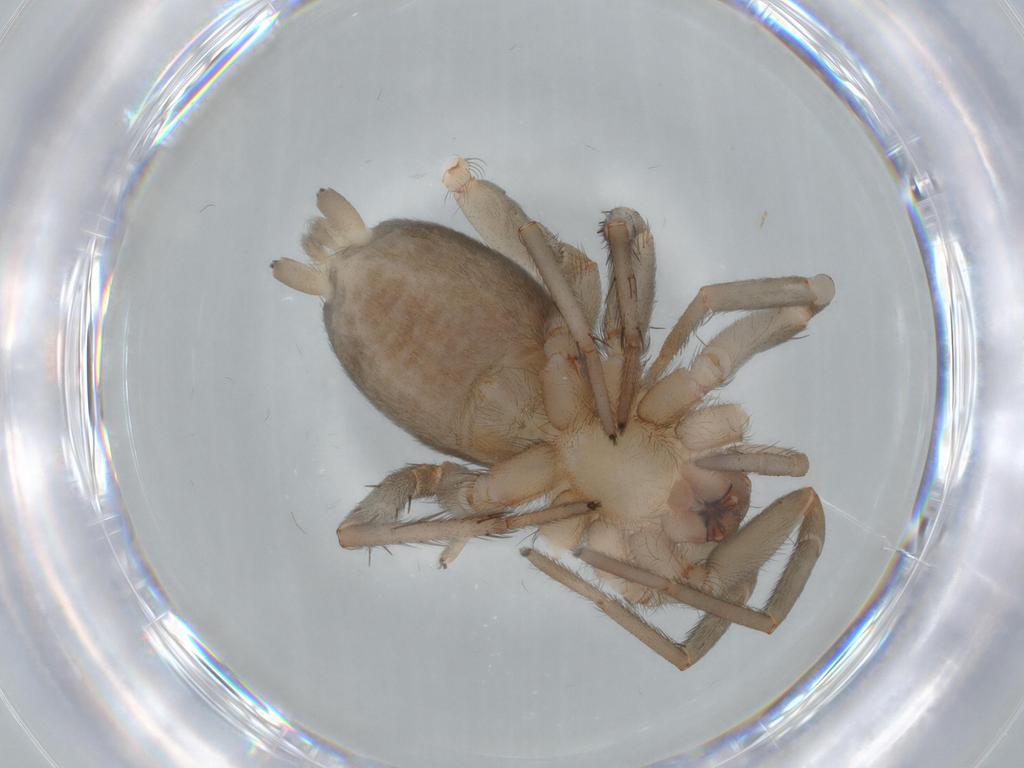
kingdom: Animalia
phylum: Arthropoda
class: Arachnida
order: Araneae
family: Gnaphosidae
